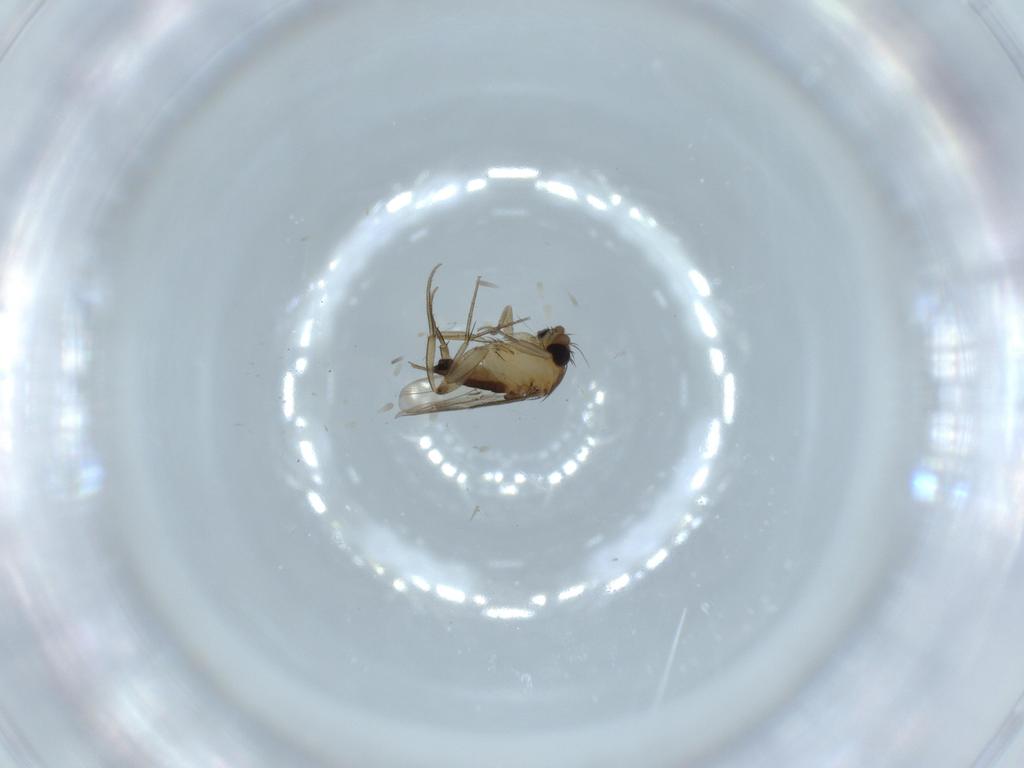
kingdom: Animalia
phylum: Arthropoda
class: Insecta
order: Diptera
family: Phoridae
